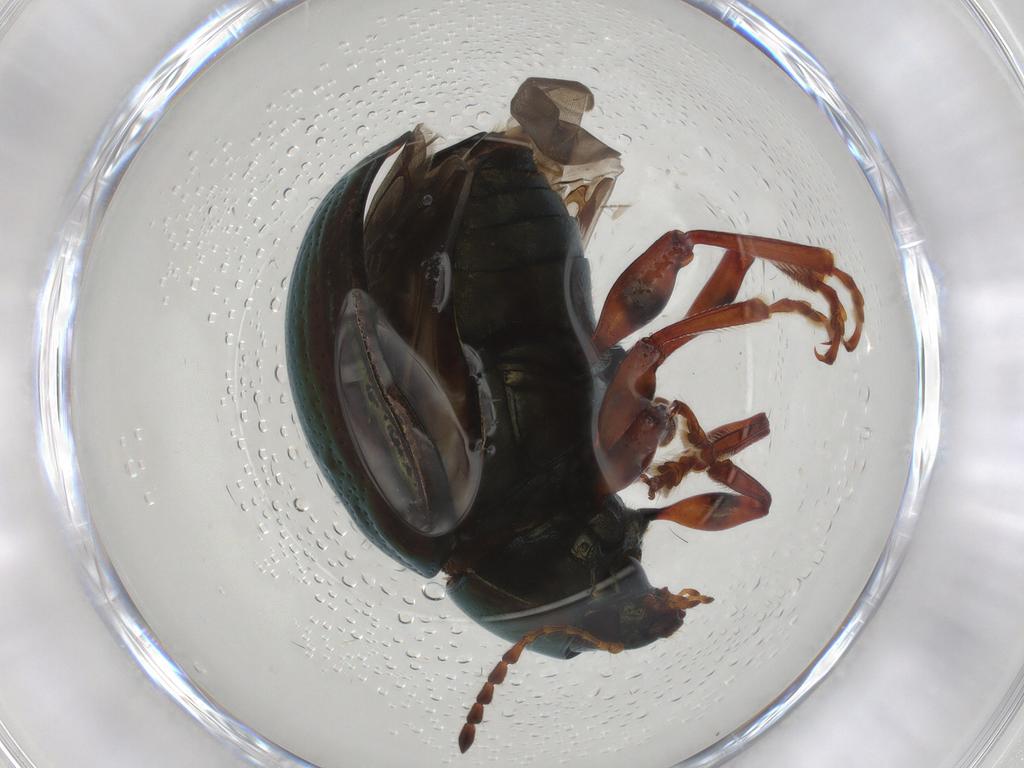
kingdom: Animalia
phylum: Arthropoda
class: Insecta
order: Coleoptera
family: Chrysomelidae
